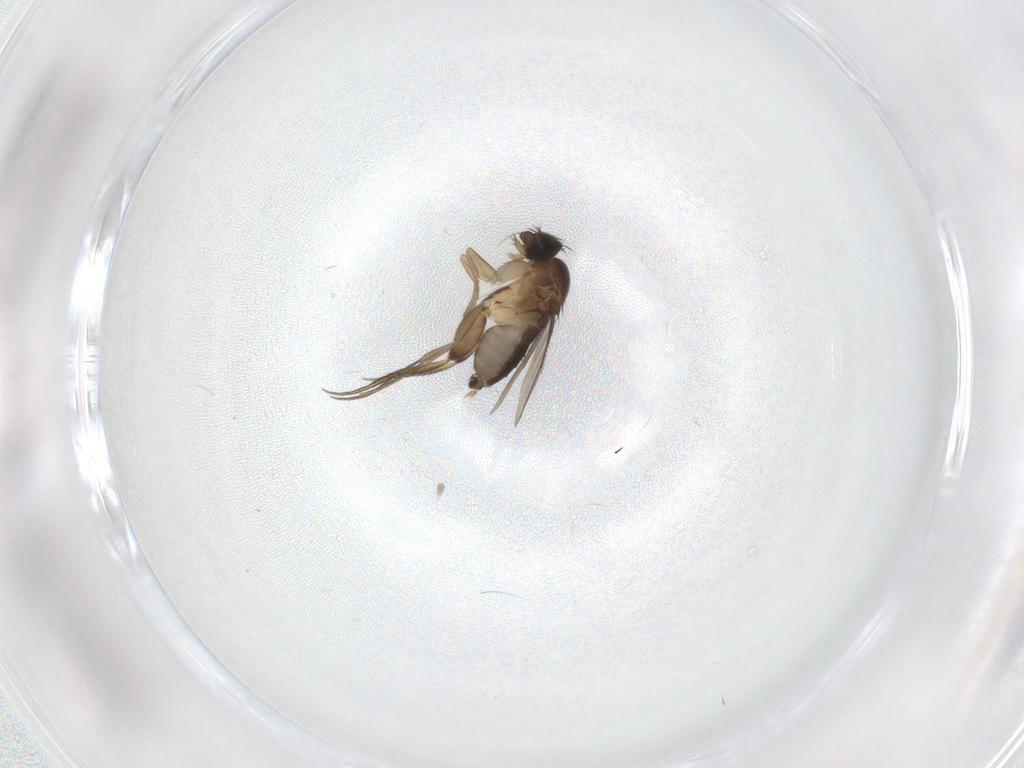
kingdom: Animalia
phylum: Arthropoda
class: Insecta
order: Diptera
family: Phoridae
